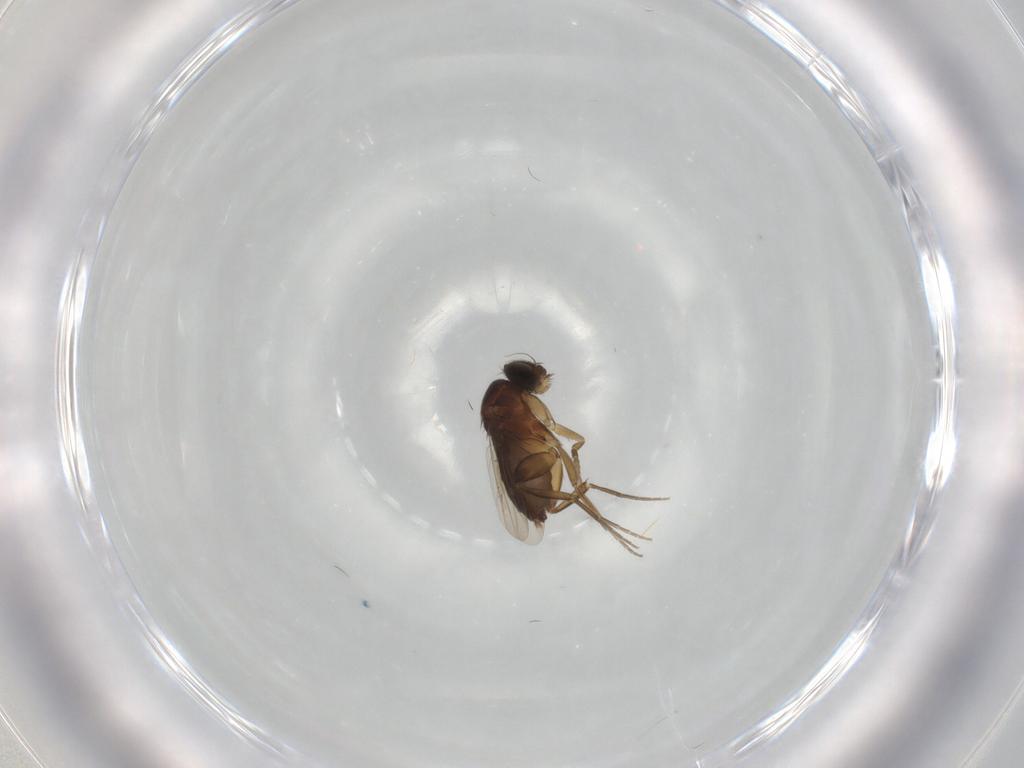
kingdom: Animalia
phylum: Arthropoda
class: Insecta
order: Diptera
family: Phoridae
